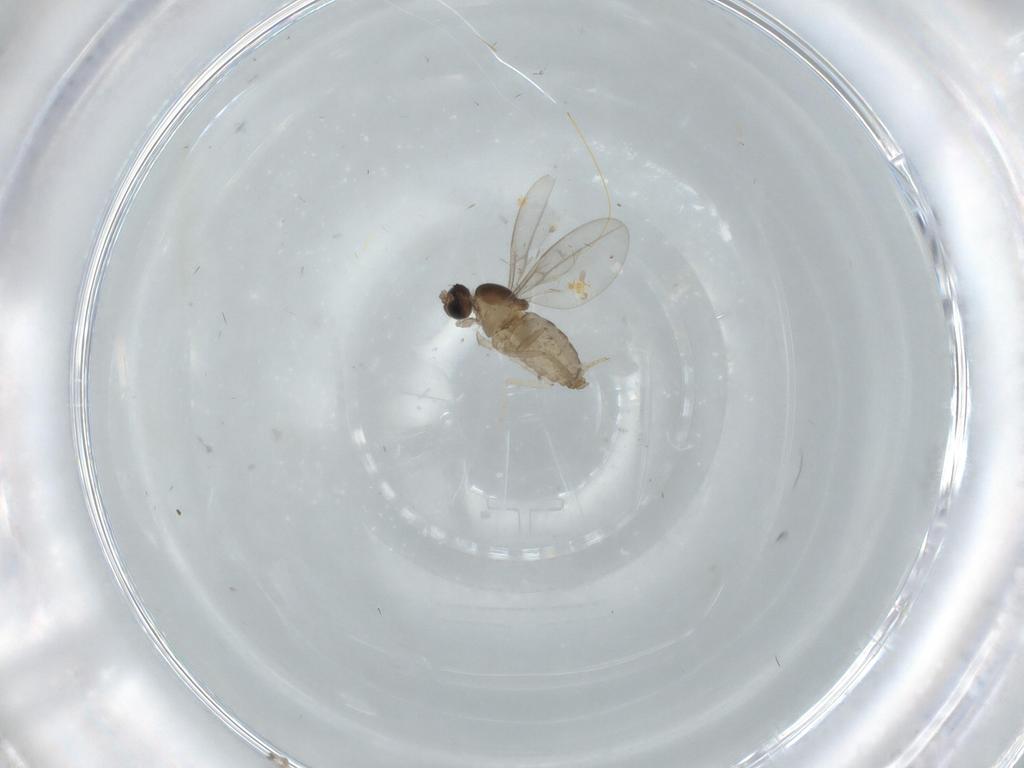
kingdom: Animalia
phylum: Arthropoda
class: Insecta
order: Diptera
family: Cecidomyiidae
